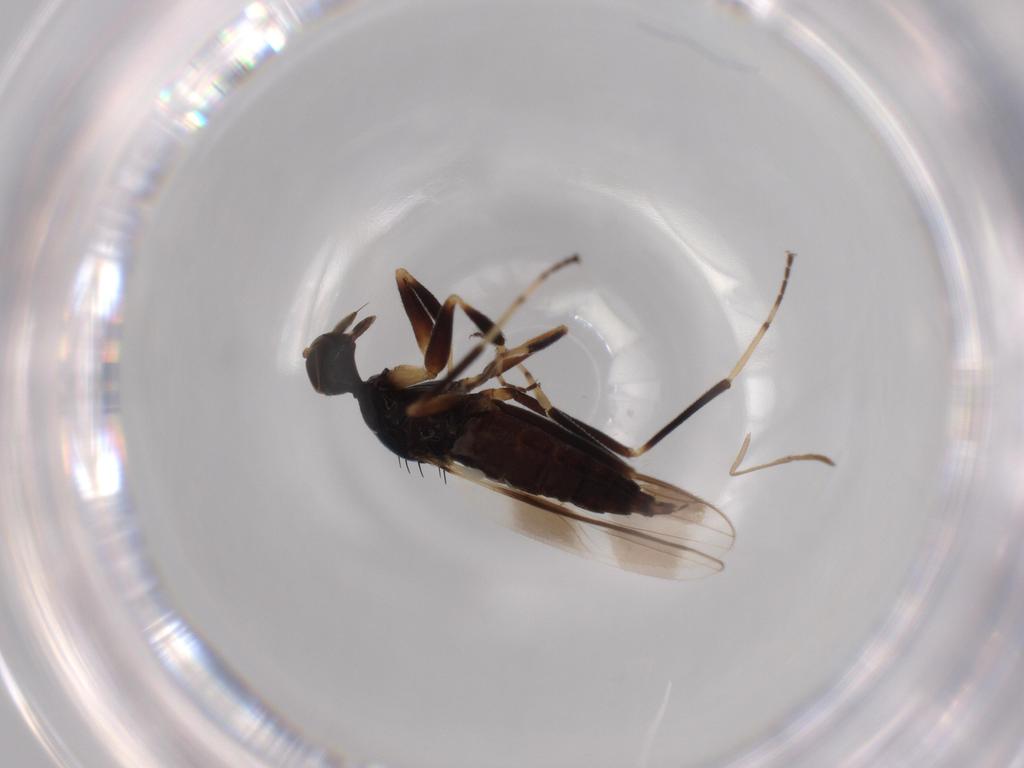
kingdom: Animalia
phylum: Arthropoda
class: Insecta
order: Diptera
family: Hybotidae
